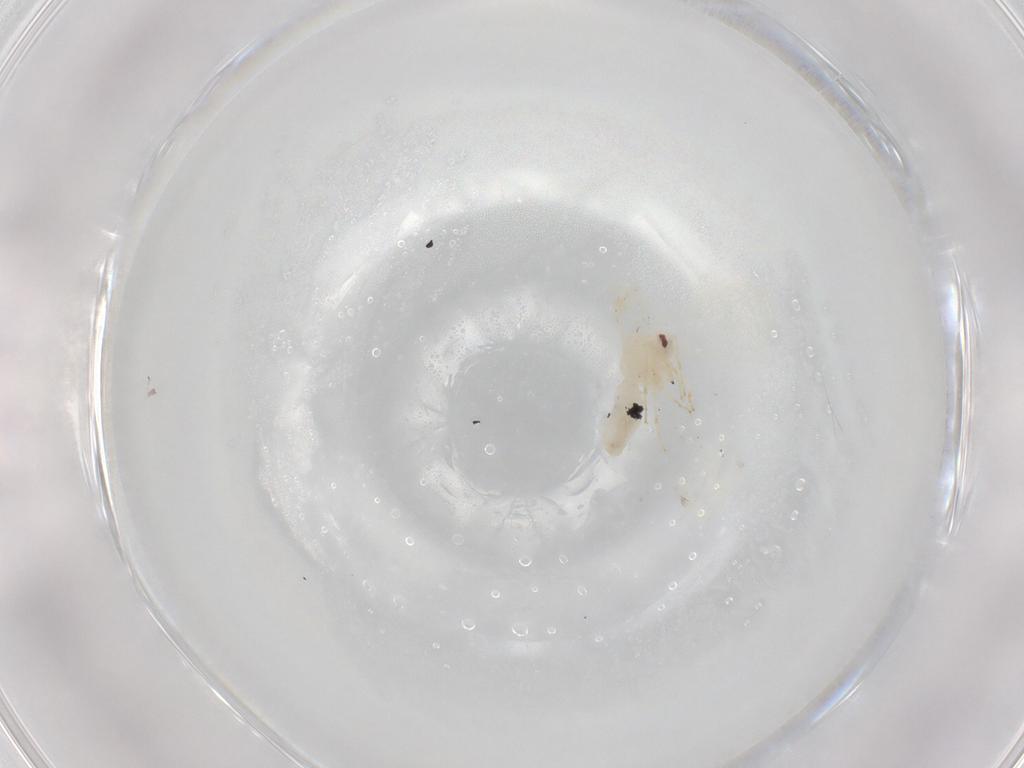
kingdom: Animalia
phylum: Arthropoda
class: Insecta
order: Hemiptera
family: Aleyrodidae
